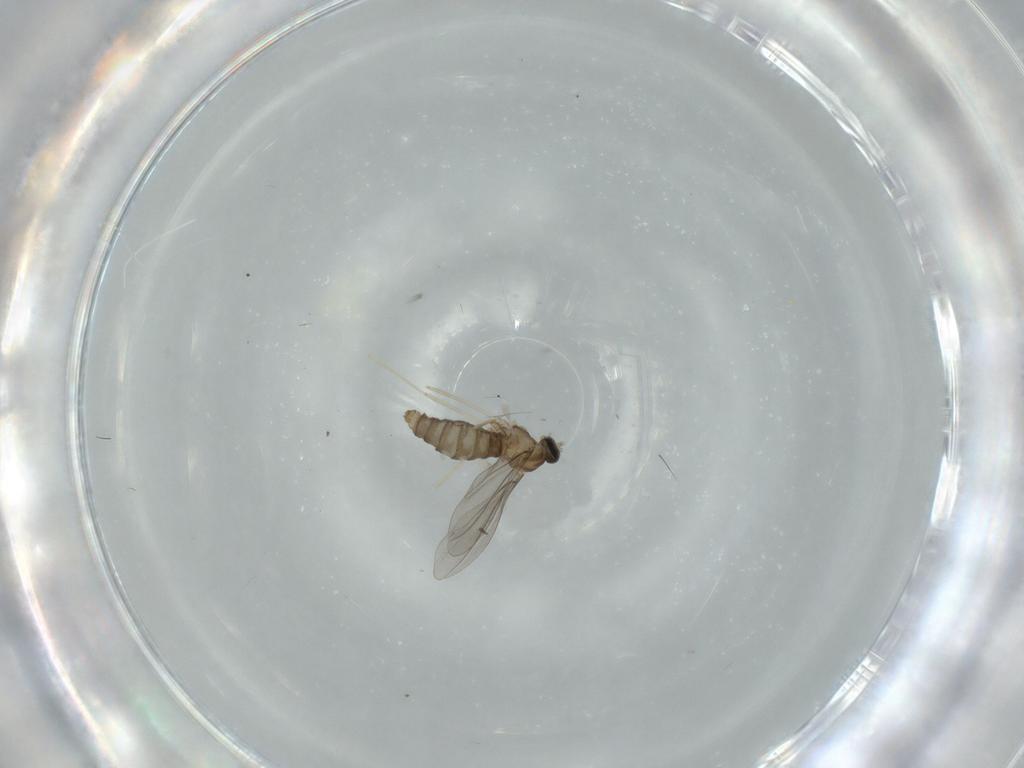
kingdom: Animalia
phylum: Arthropoda
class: Insecta
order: Diptera
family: Cecidomyiidae
